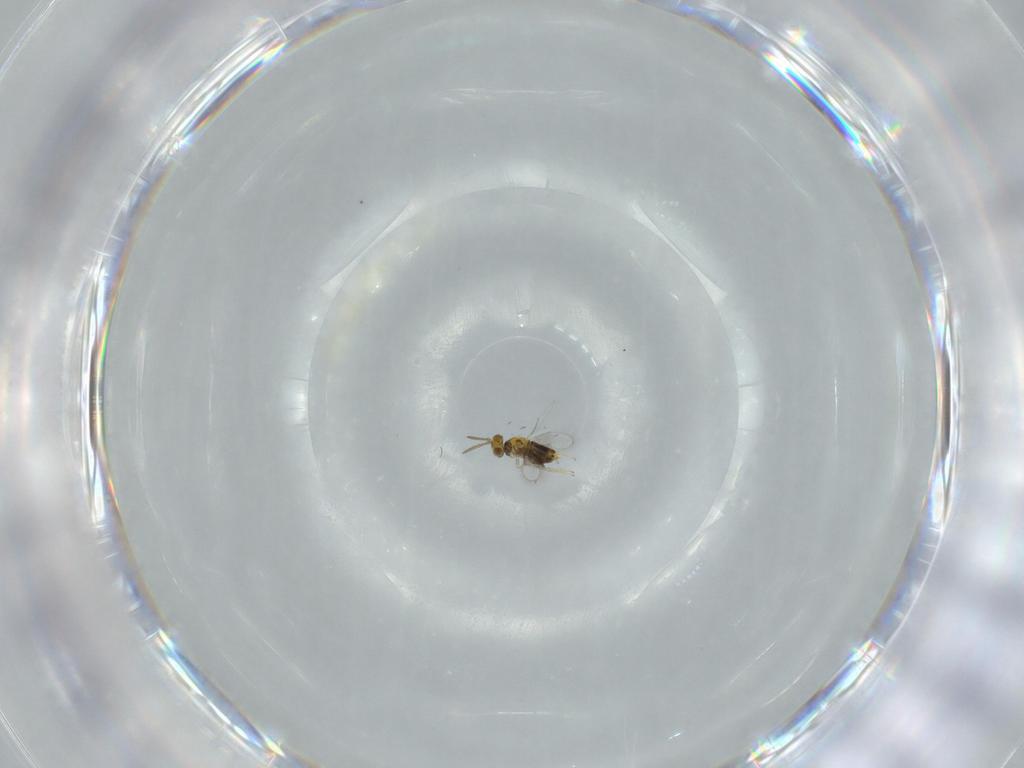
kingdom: Animalia
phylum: Arthropoda
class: Insecta
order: Hymenoptera
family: Aphelinidae
